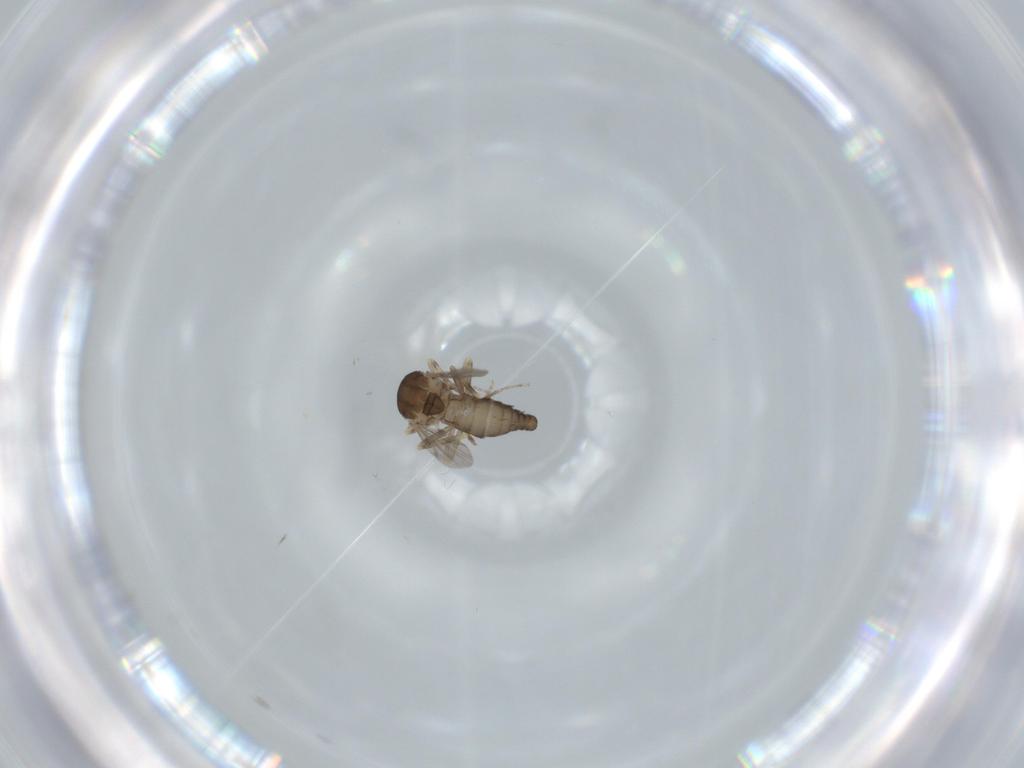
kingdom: Animalia
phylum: Arthropoda
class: Insecta
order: Diptera
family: Ceratopogonidae
